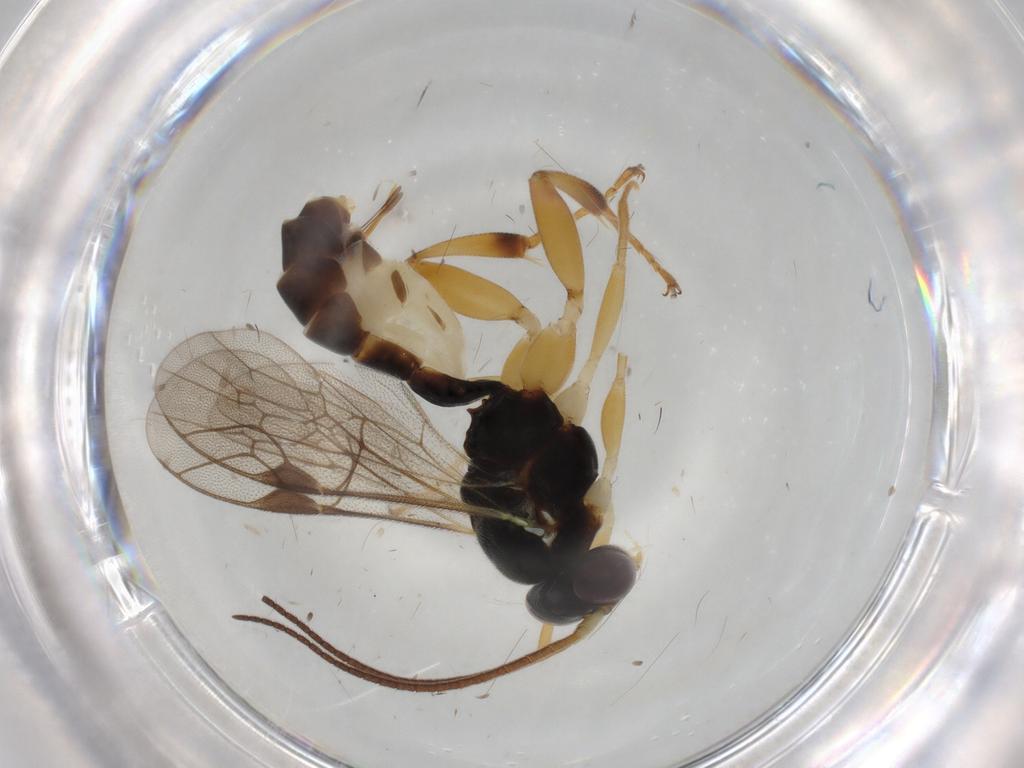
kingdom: Animalia
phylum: Arthropoda
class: Insecta
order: Hymenoptera
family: Ichneumonidae
